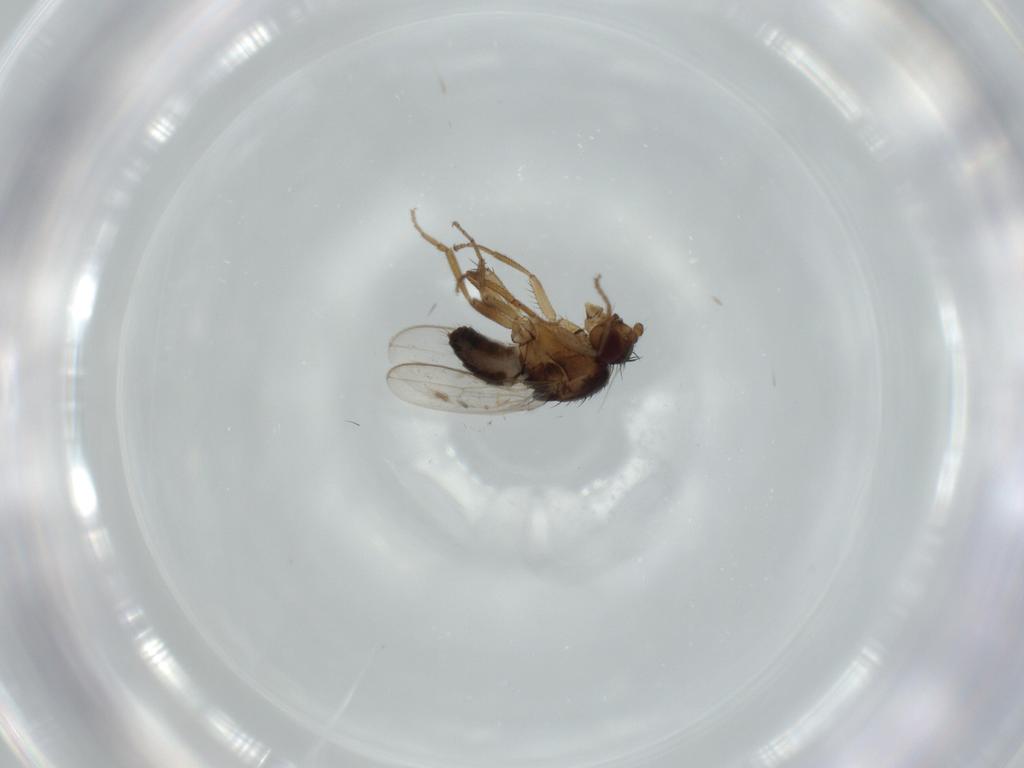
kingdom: Animalia
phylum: Arthropoda
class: Insecta
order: Diptera
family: Sphaeroceridae
